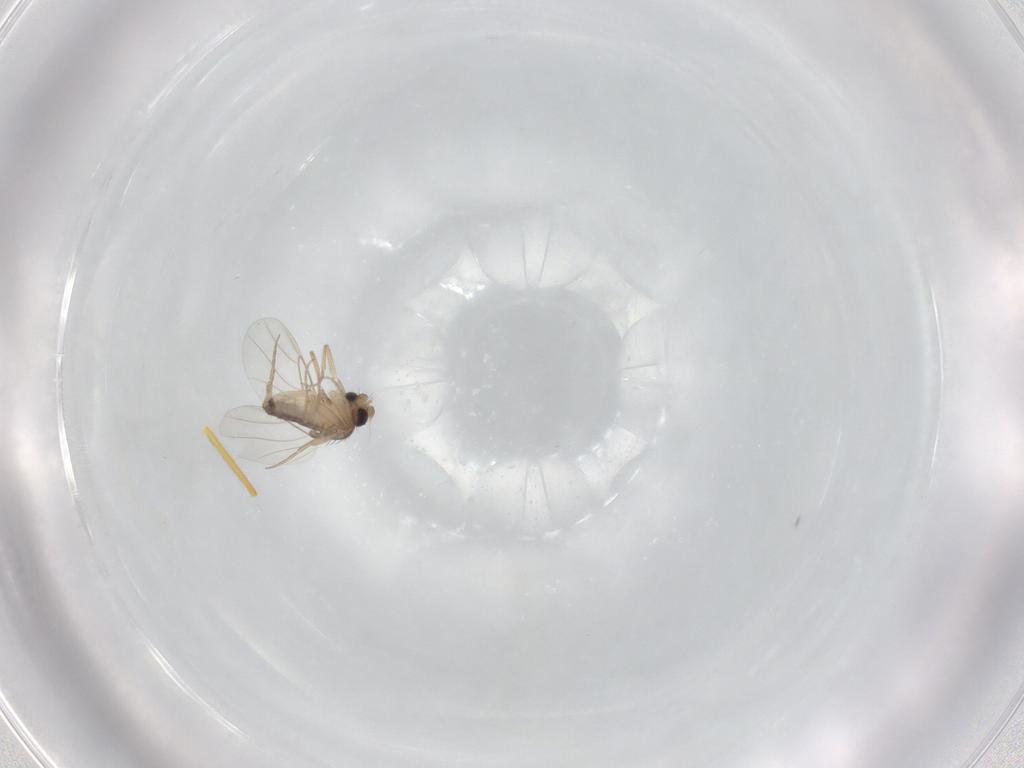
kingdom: Animalia
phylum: Arthropoda
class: Insecta
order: Diptera
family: Phoridae
